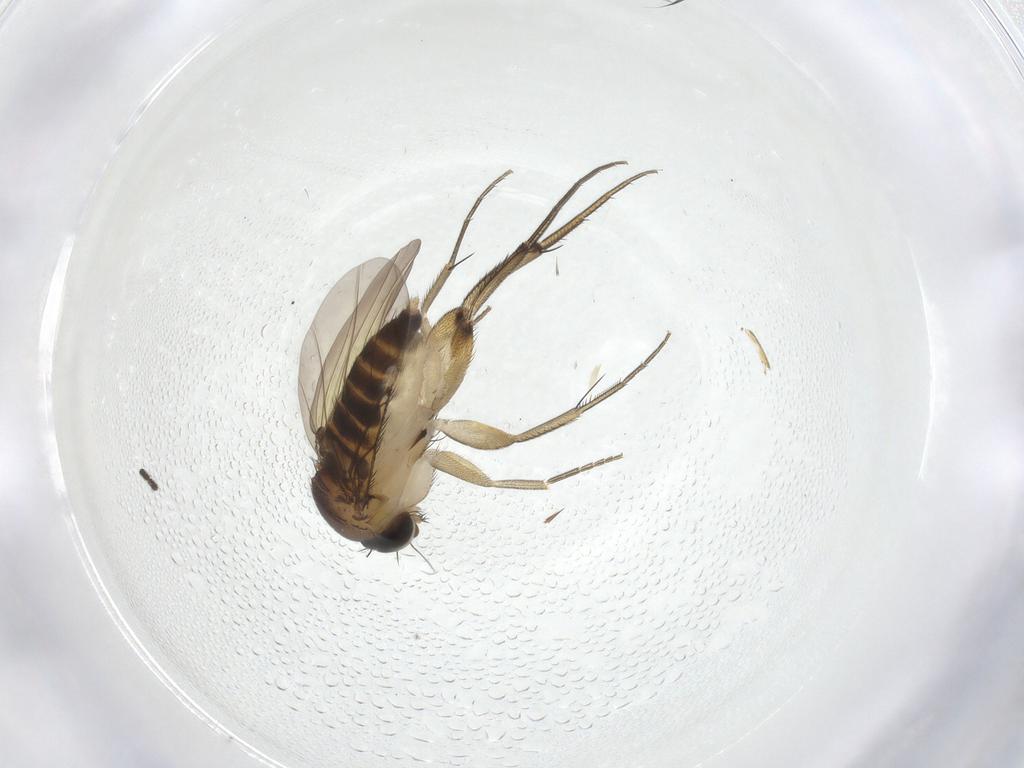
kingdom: Animalia
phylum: Arthropoda
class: Insecta
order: Diptera
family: Phoridae
